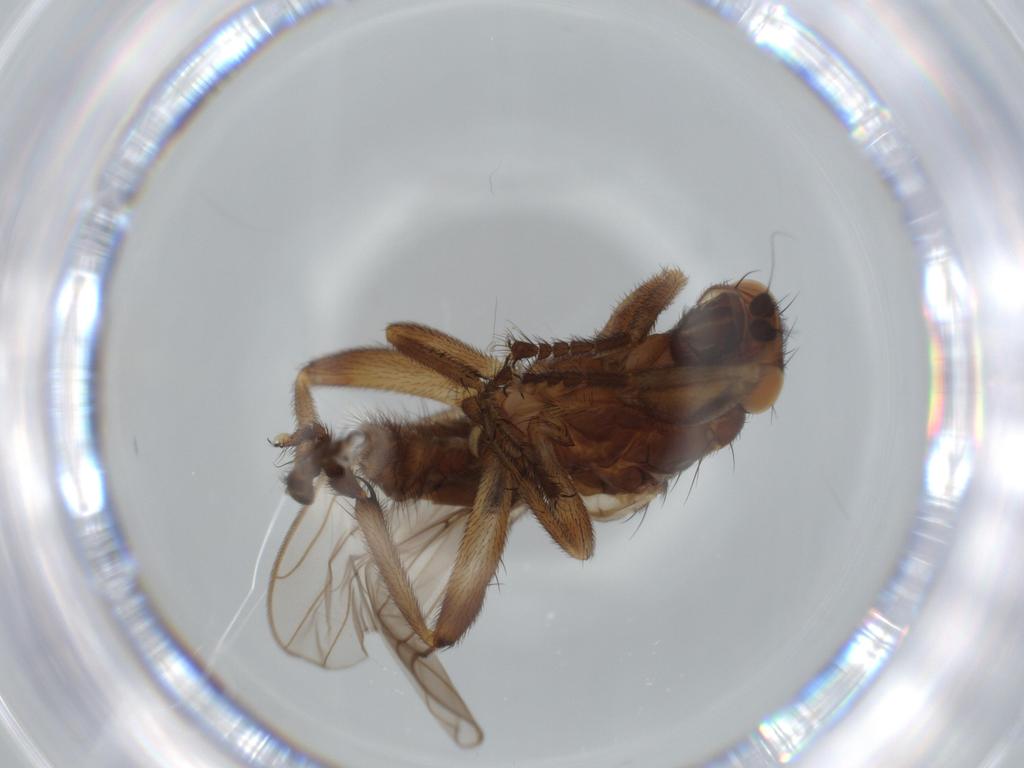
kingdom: Animalia
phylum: Arthropoda
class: Insecta
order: Diptera
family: Sphaeroceridae
